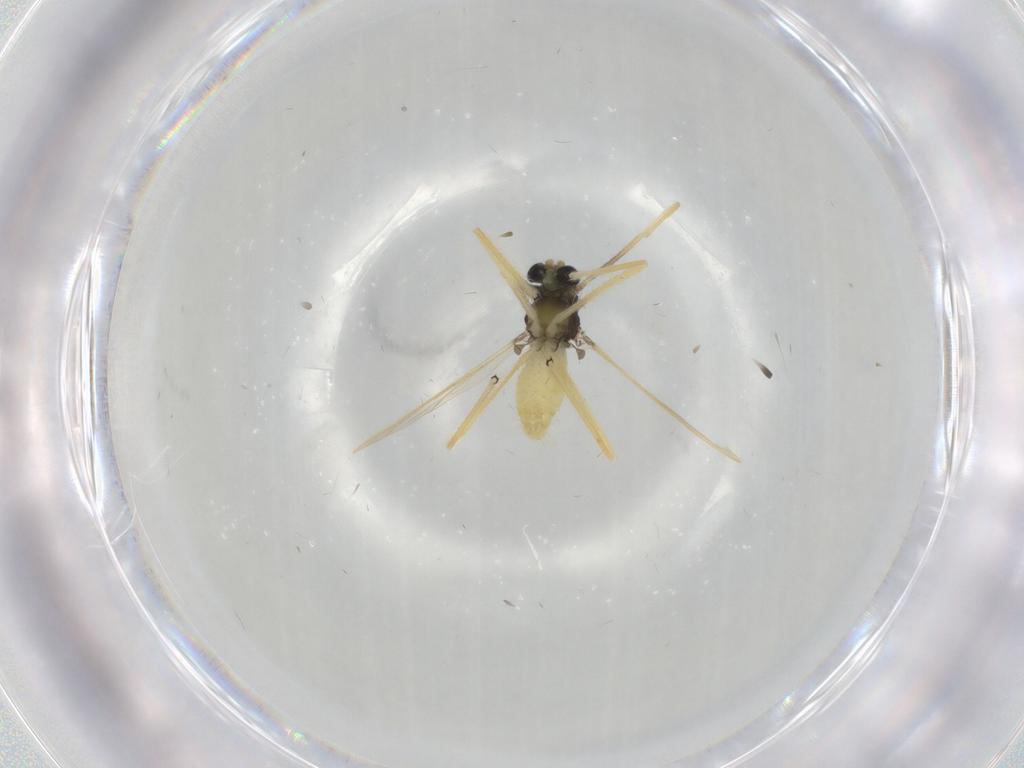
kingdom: Animalia
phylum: Arthropoda
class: Insecta
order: Diptera
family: Chironomidae
